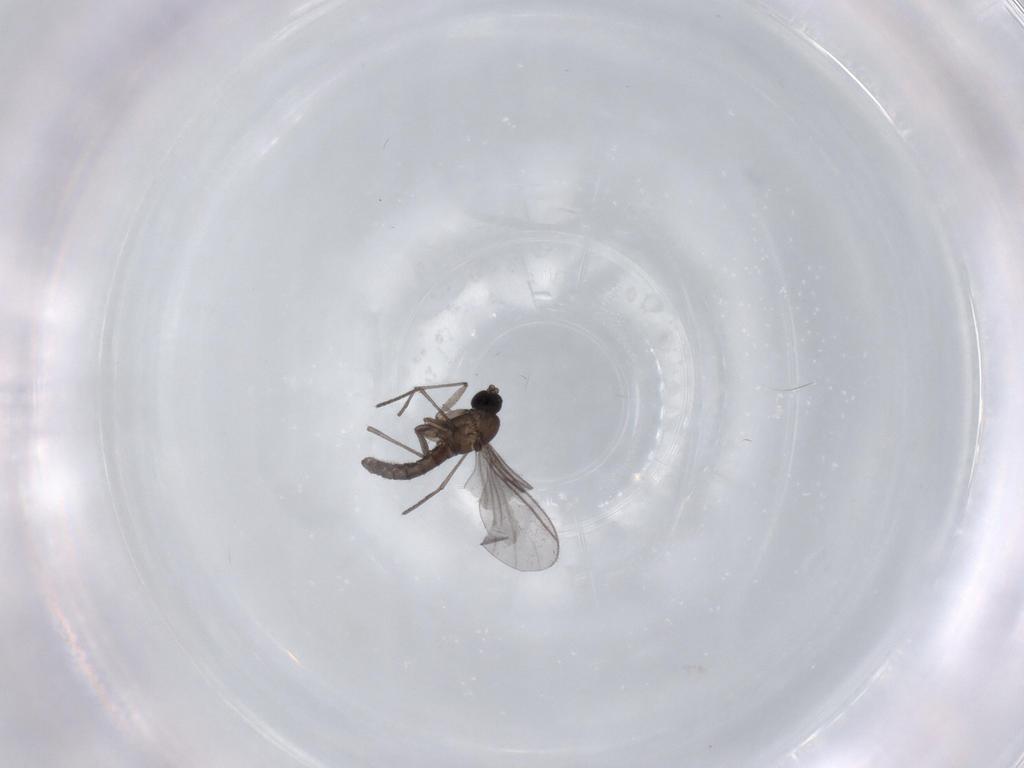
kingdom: Animalia
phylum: Arthropoda
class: Insecta
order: Diptera
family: Sciaridae
